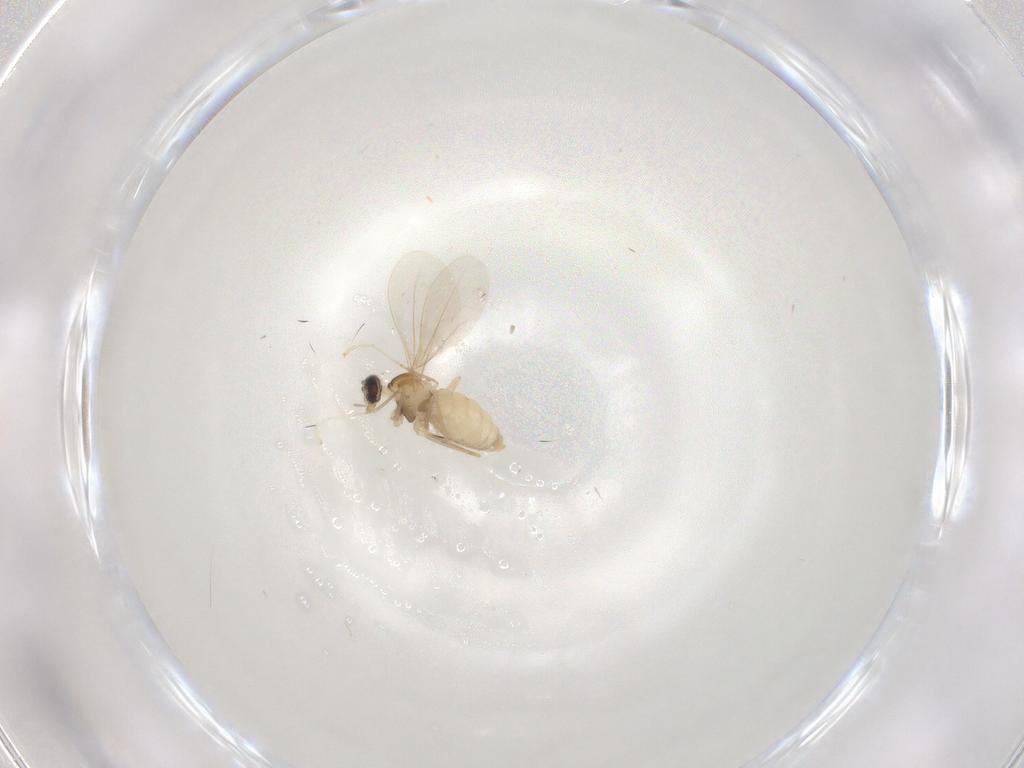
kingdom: Animalia
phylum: Arthropoda
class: Insecta
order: Diptera
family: Cecidomyiidae
